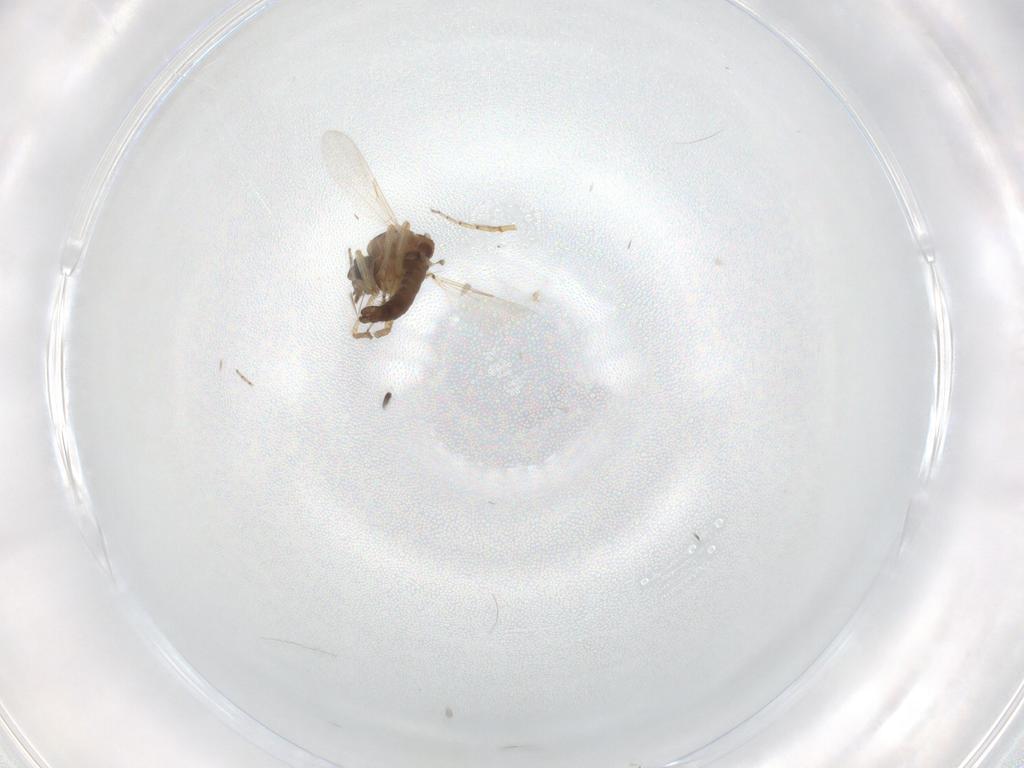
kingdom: Animalia
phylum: Arthropoda
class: Insecta
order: Diptera
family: Ceratopogonidae
